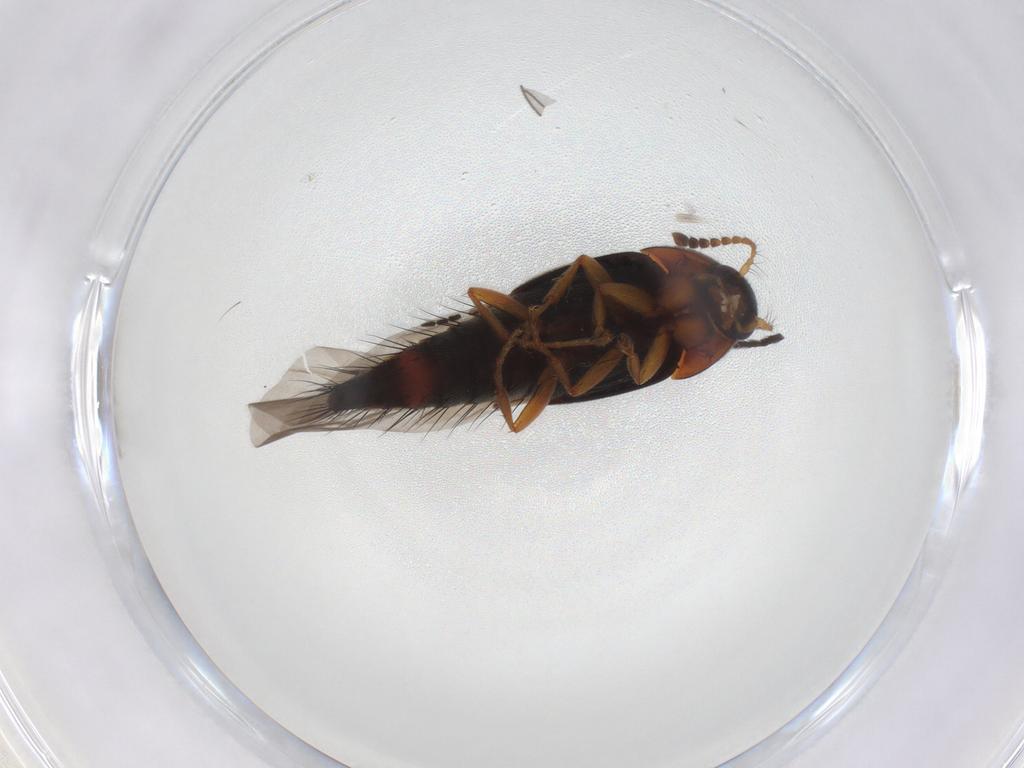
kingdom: Animalia
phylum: Arthropoda
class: Insecta
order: Coleoptera
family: Staphylinidae
